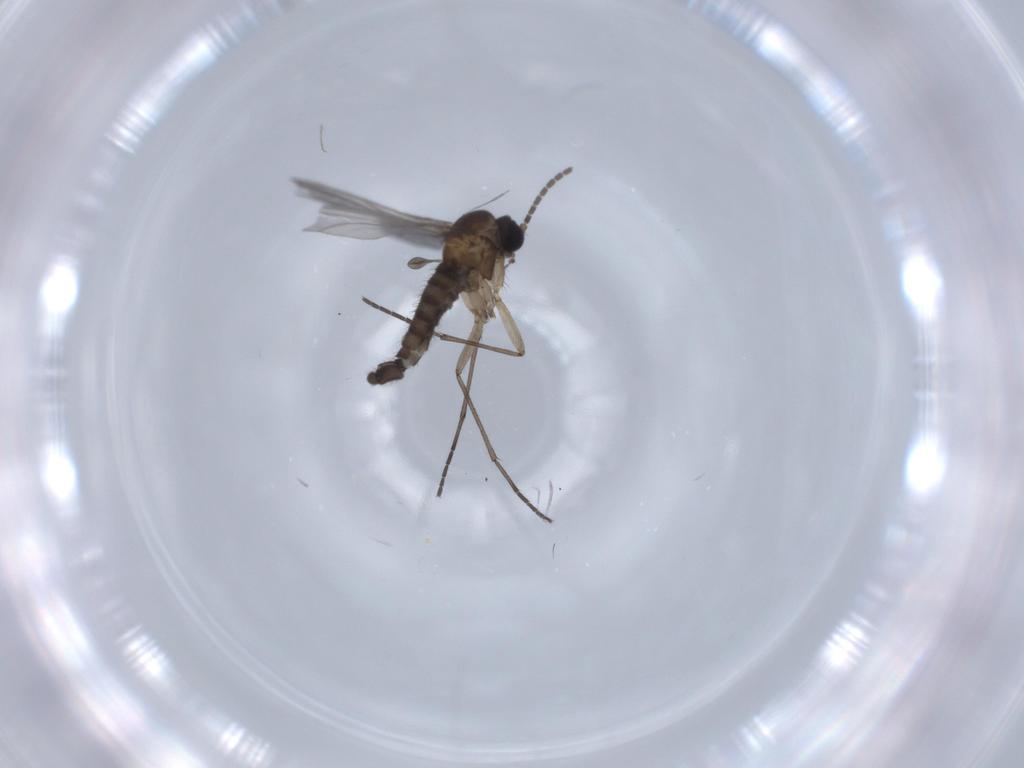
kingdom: Animalia
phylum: Arthropoda
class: Insecta
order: Diptera
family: Sciaridae
